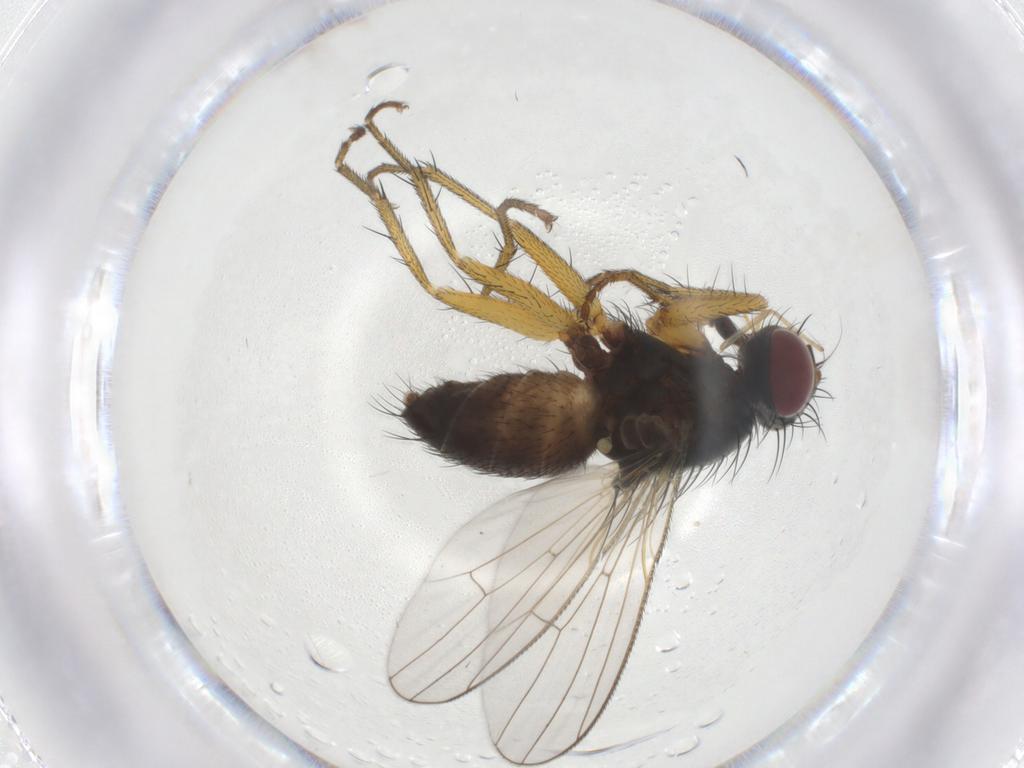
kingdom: Animalia
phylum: Arthropoda
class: Insecta
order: Diptera
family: Muscidae
